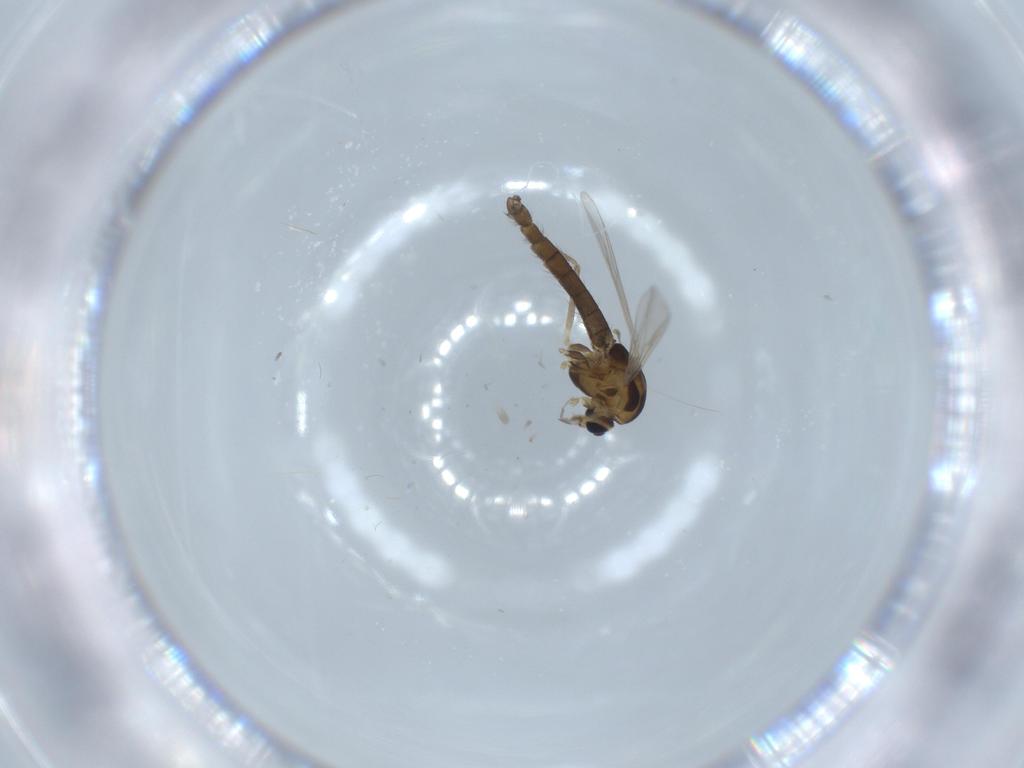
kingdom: Animalia
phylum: Arthropoda
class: Insecta
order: Diptera
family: Chironomidae
